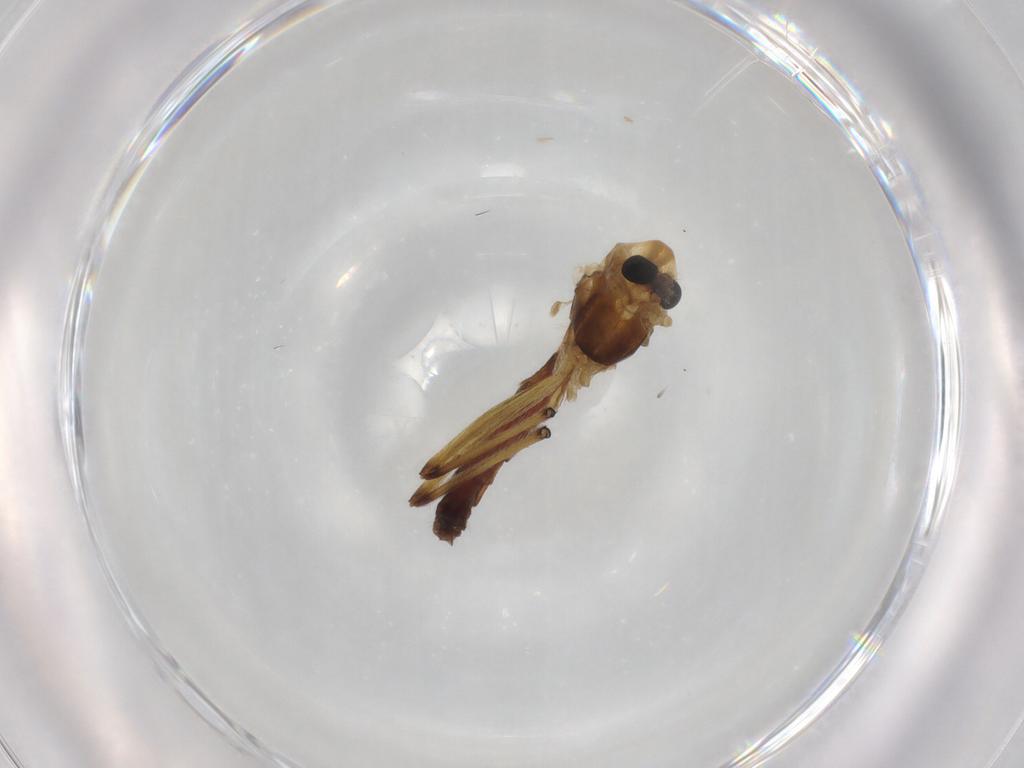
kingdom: Animalia
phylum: Arthropoda
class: Insecta
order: Diptera
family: Chironomidae
